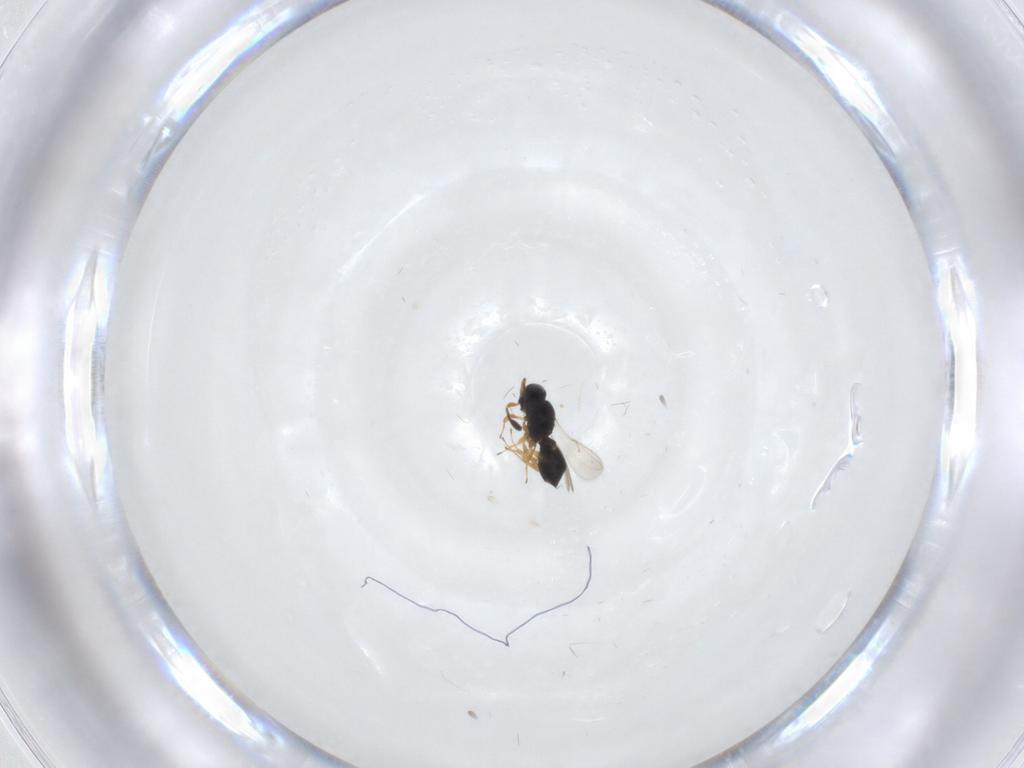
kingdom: Animalia
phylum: Arthropoda
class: Insecta
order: Hymenoptera
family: Scelionidae
